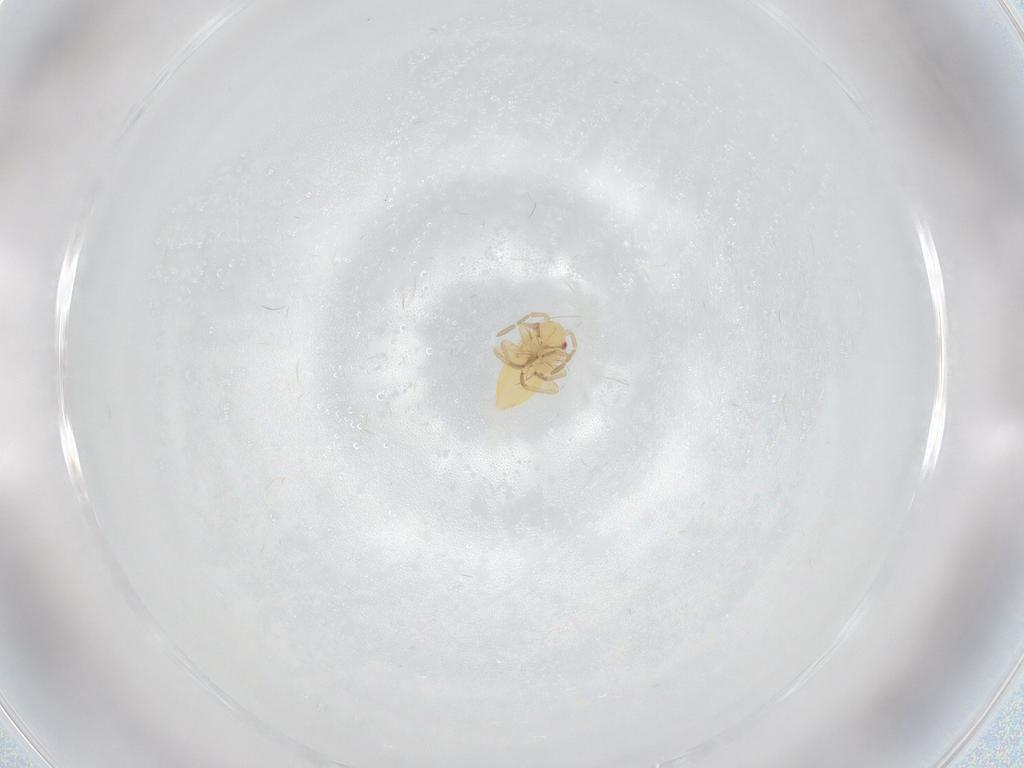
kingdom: Animalia
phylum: Arthropoda
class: Insecta
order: Hemiptera
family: Miridae
